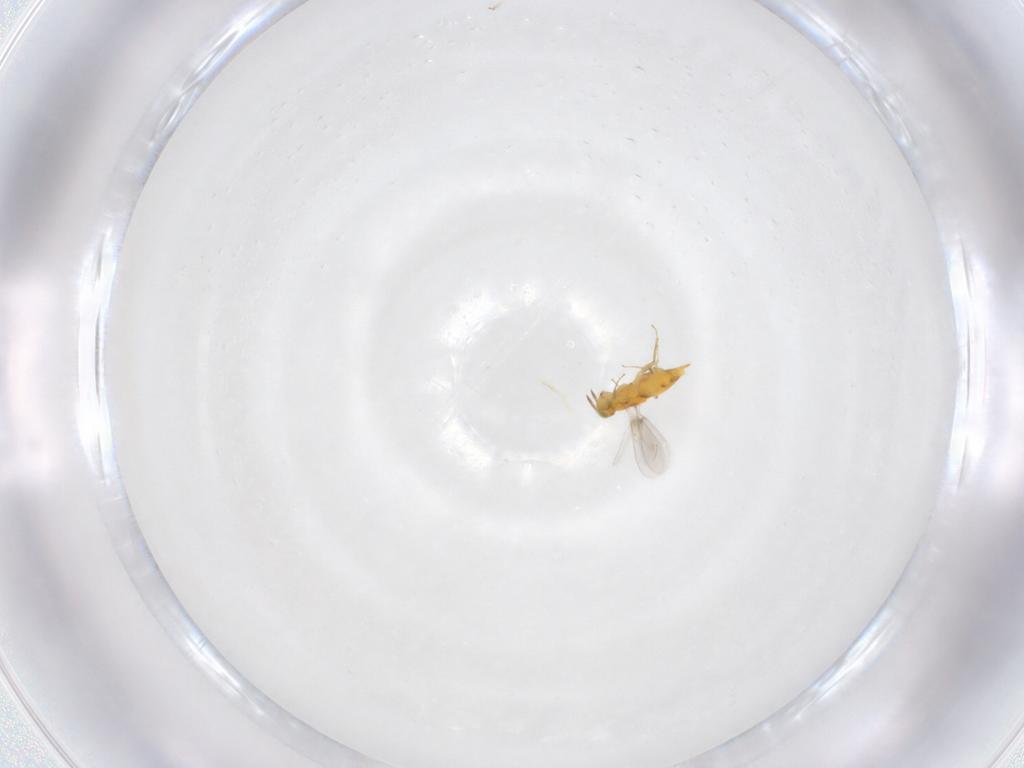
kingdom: Animalia
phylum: Arthropoda
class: Insecta
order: Hymenoptera
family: Aphelinidae
